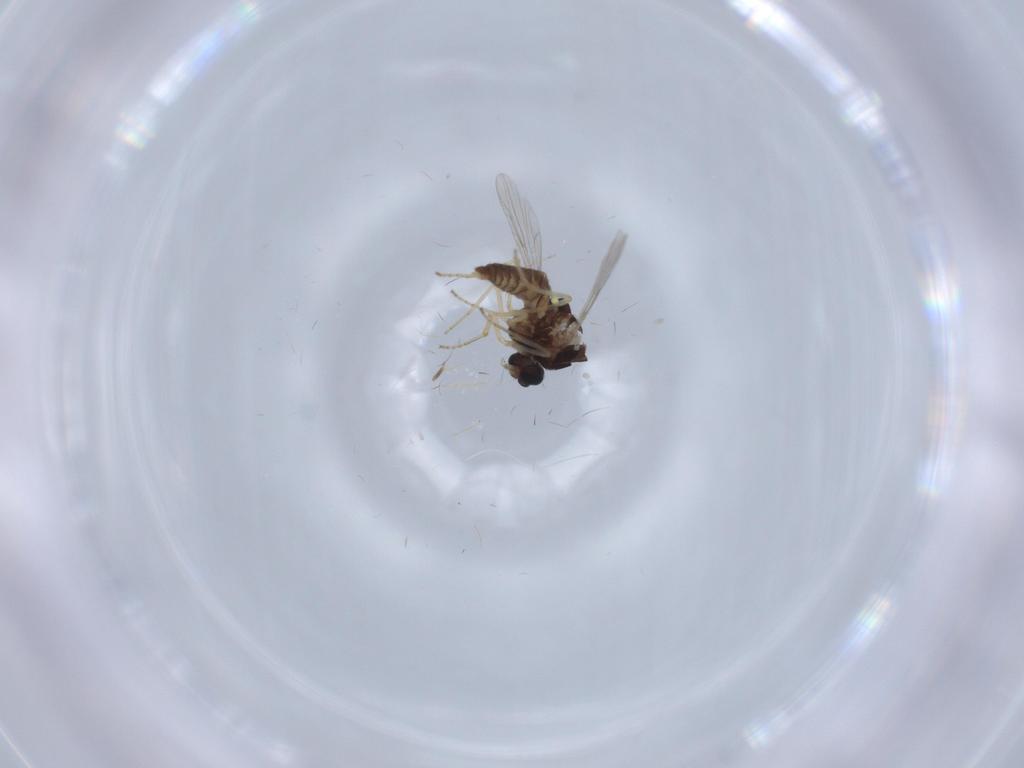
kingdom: Animalia
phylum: Arthropoda
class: Insecta
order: Diptera
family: Ceratopogonidae
